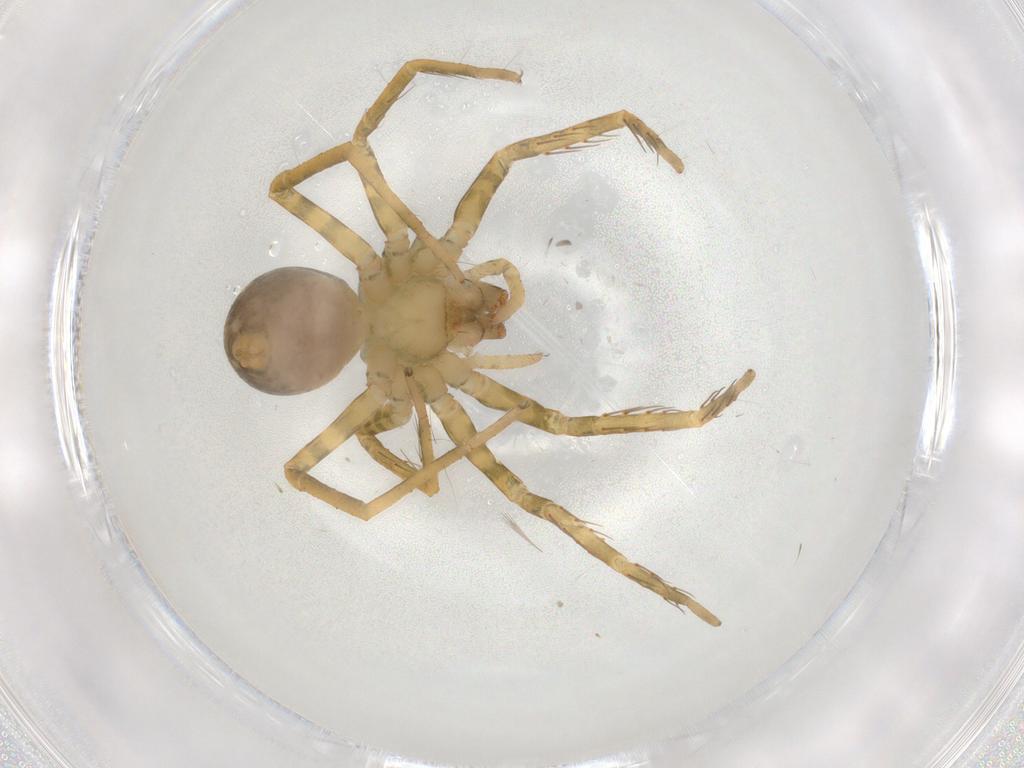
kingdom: Animalia
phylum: Arthropoda
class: Arachnida
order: Araneae
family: Ctenidae
